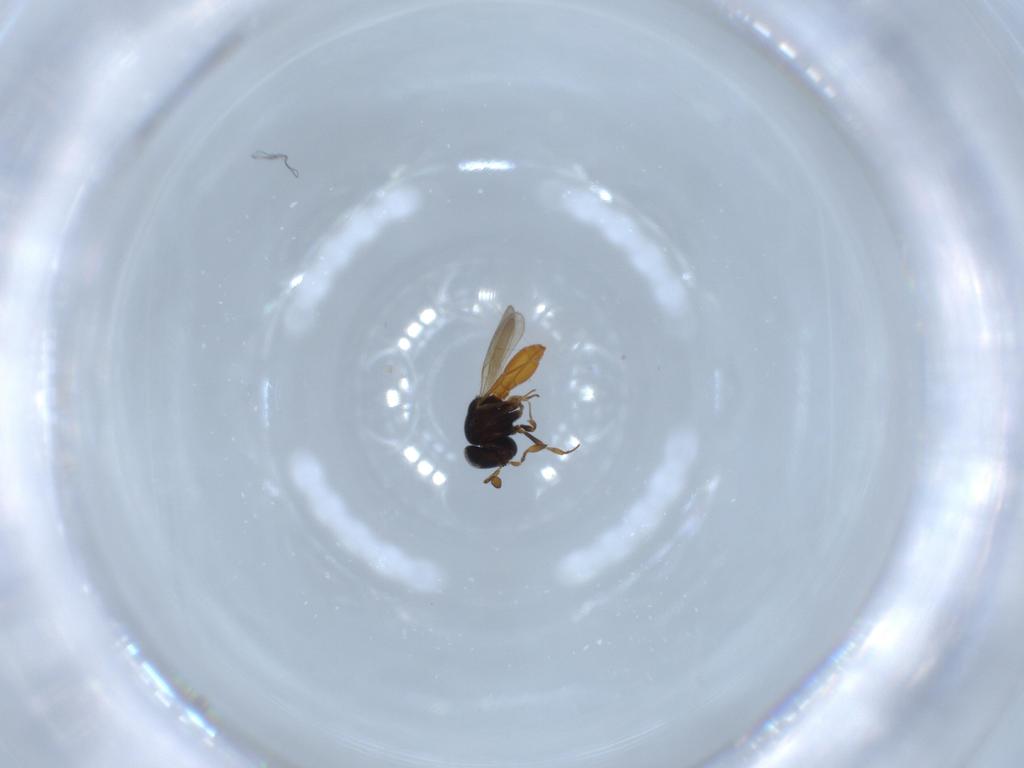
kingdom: Animalia
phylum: Arthropoda
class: Insecta
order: Hymenoptera
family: Scelionidae
